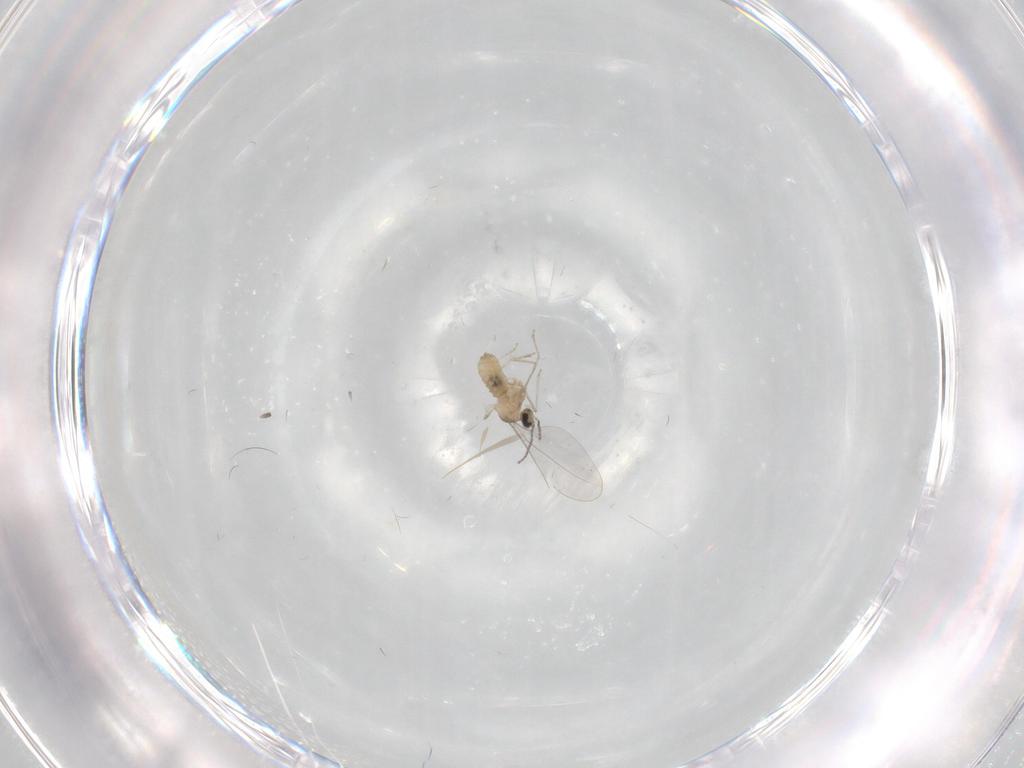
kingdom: Animalia
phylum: Arthropoda
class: Insecta
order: Diptera
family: Cecidomyiidae
